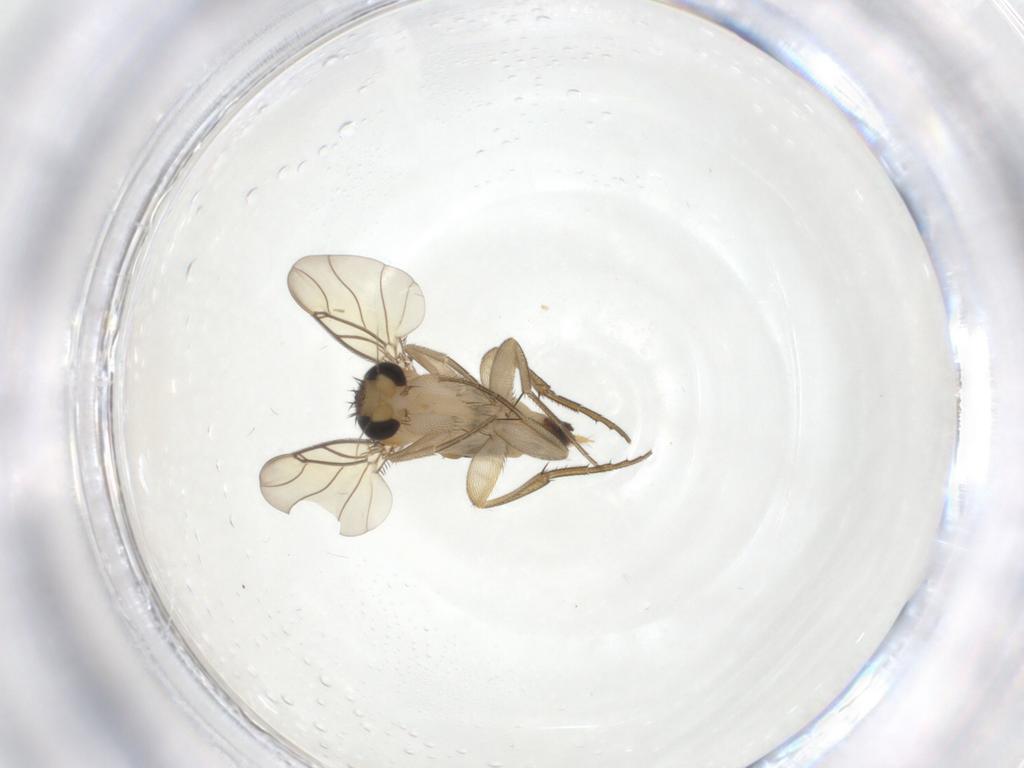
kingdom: Animalia
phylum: Arthropoda
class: Insecta
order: Diptera
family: Phoridae
